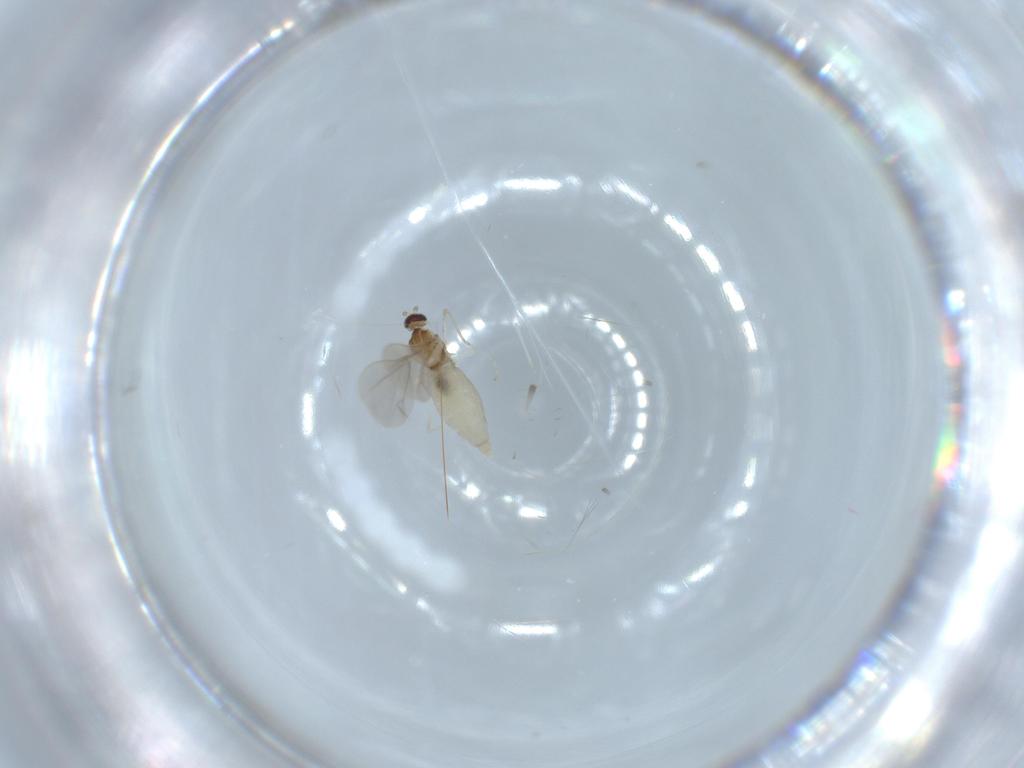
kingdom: Animalia
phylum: Arthropoda
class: Insecta
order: Diptera
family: Cecidomyiidae
